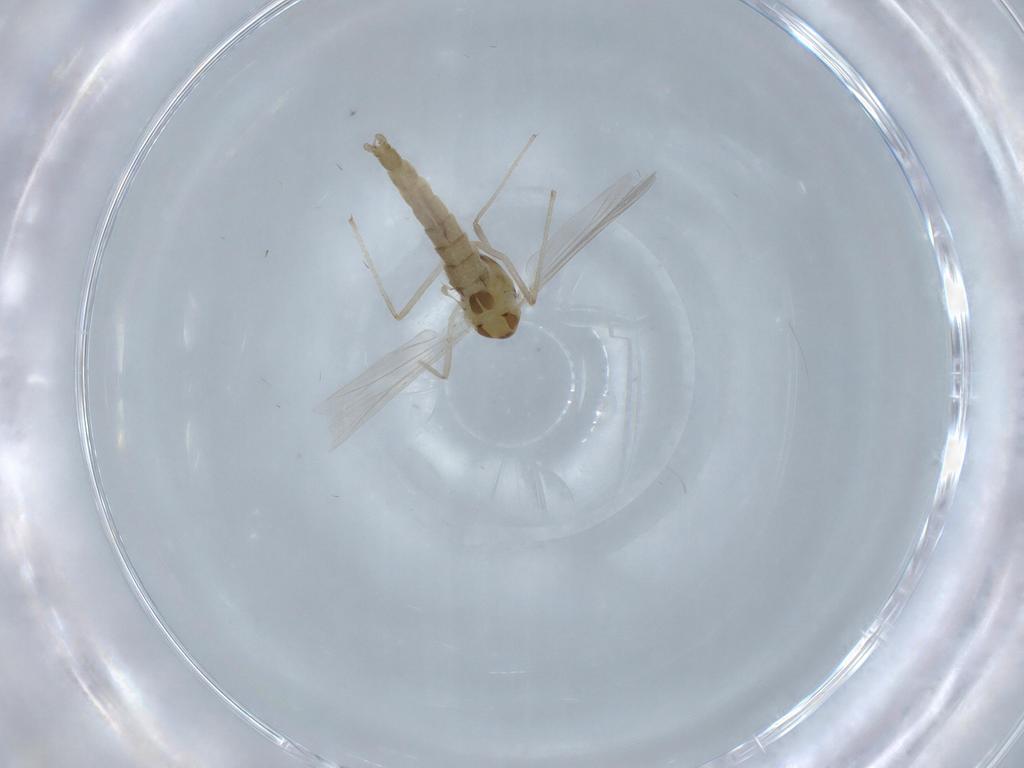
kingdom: Animalia
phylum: Arthropoda
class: Insecta
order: Diptera
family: Chironomidae
